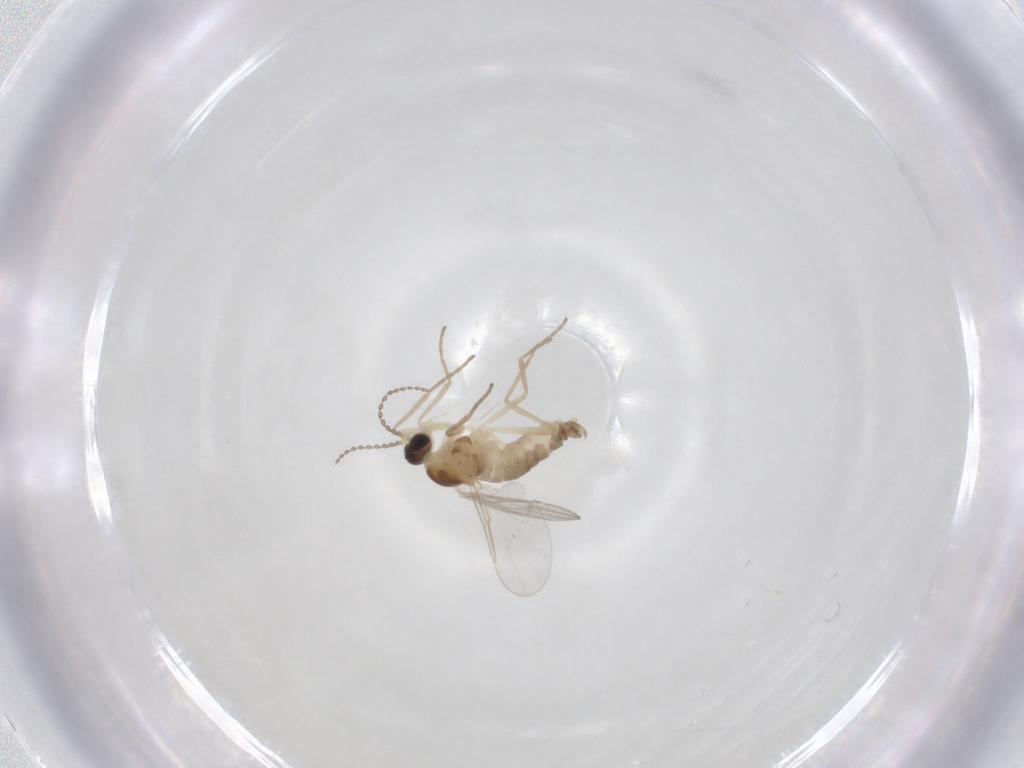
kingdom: Animalia
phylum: Arthropoda
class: Insecta
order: Diptera
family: Cecidomyiidae
